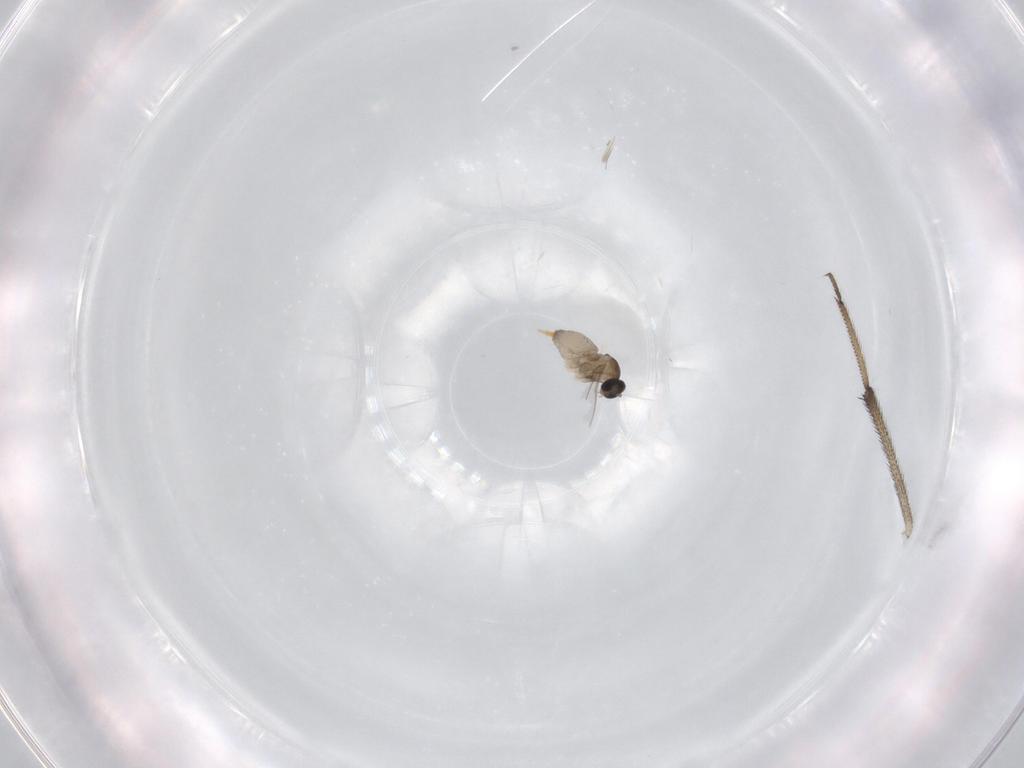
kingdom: Animalia
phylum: Arthropoda
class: Insecta
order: Diptera
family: Cecidomyiidae
